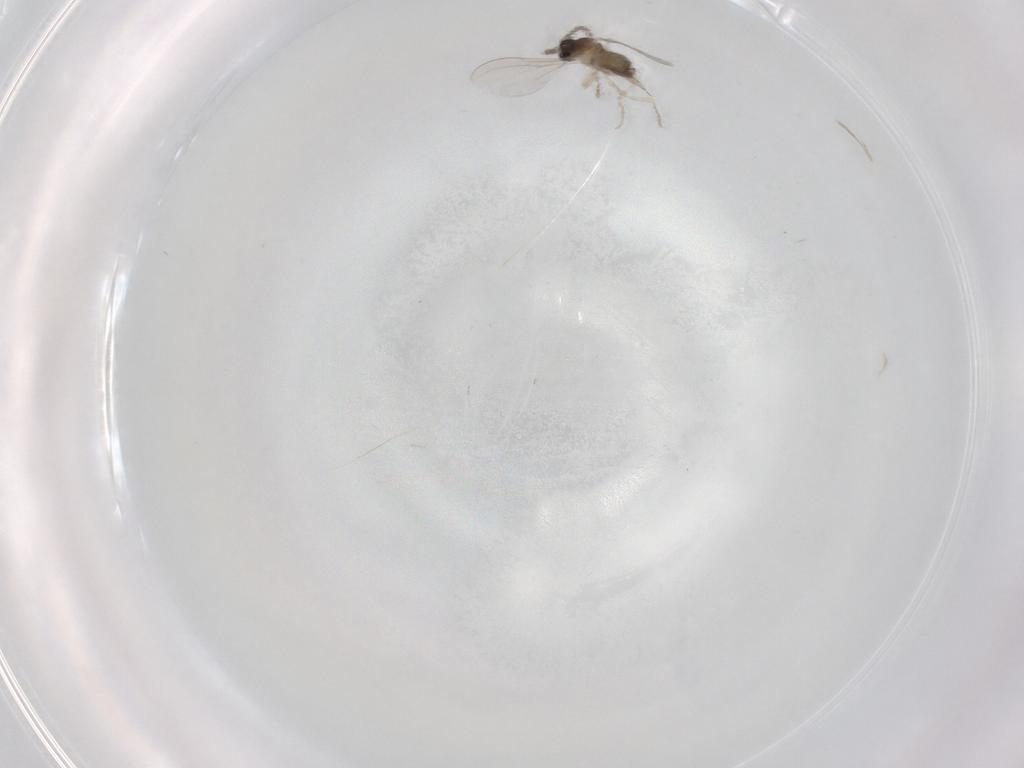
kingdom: Animalia
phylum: Arthropoda
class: Insecta
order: Diptera
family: Cecidomyiidae
